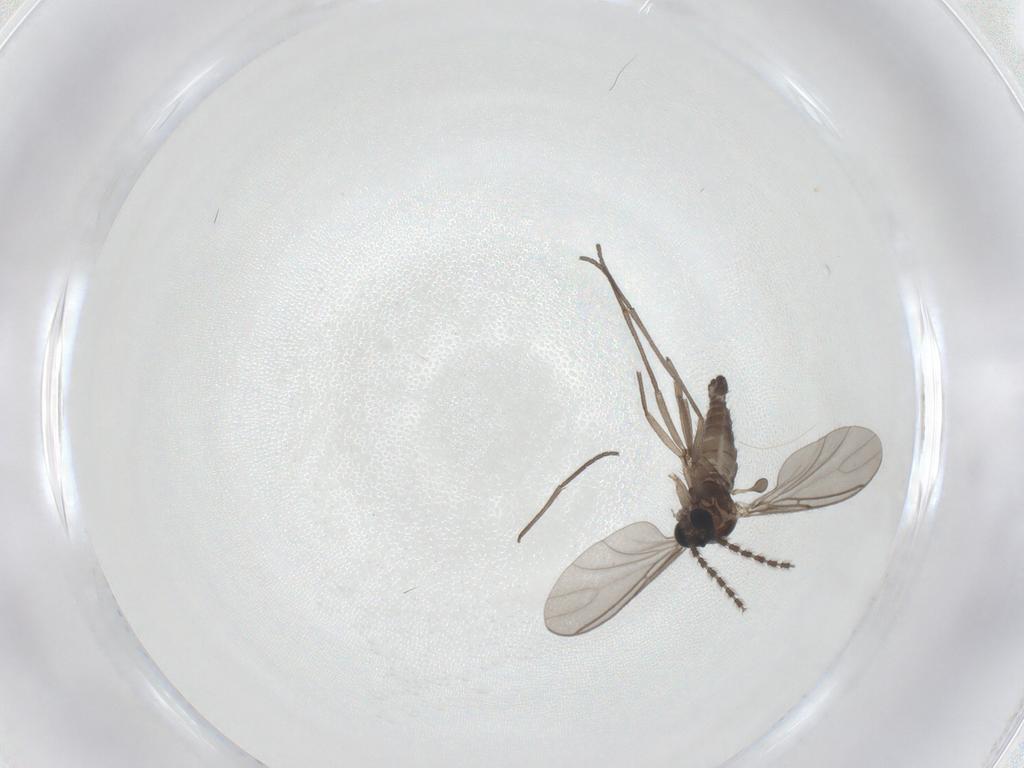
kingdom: Animalia
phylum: Arthropoda
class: Insecta
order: Diptera
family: Sciaridae
